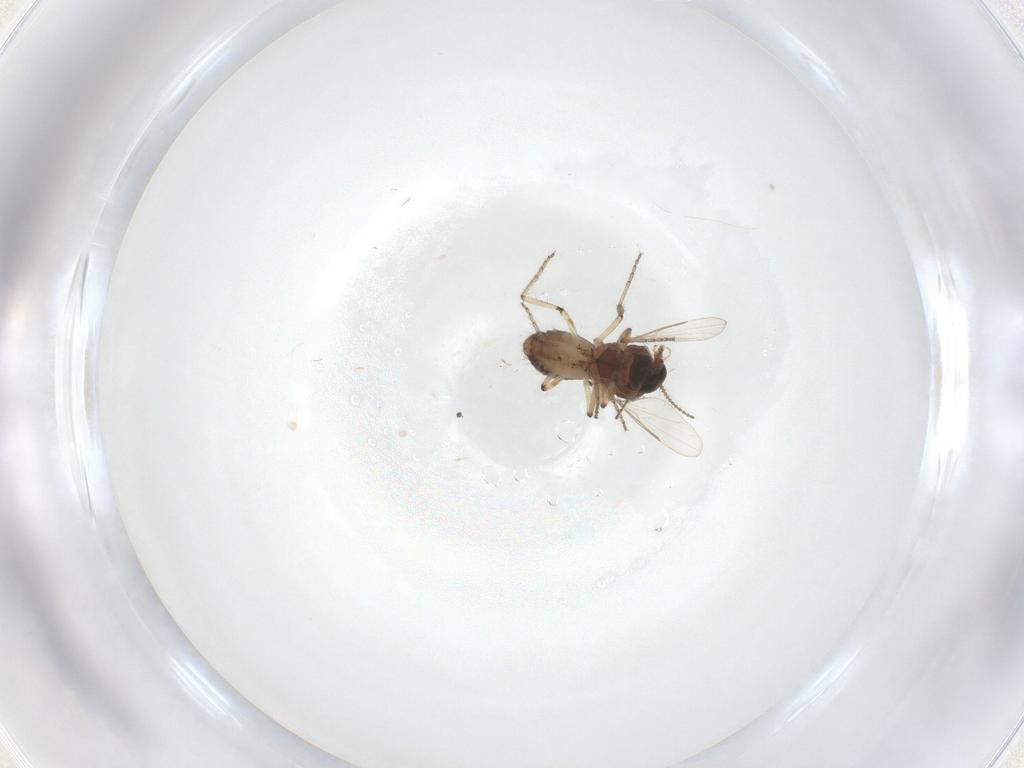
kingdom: Animalia
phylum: Arthropoda
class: Insecta
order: Diptera
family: Ceratopogonidae
